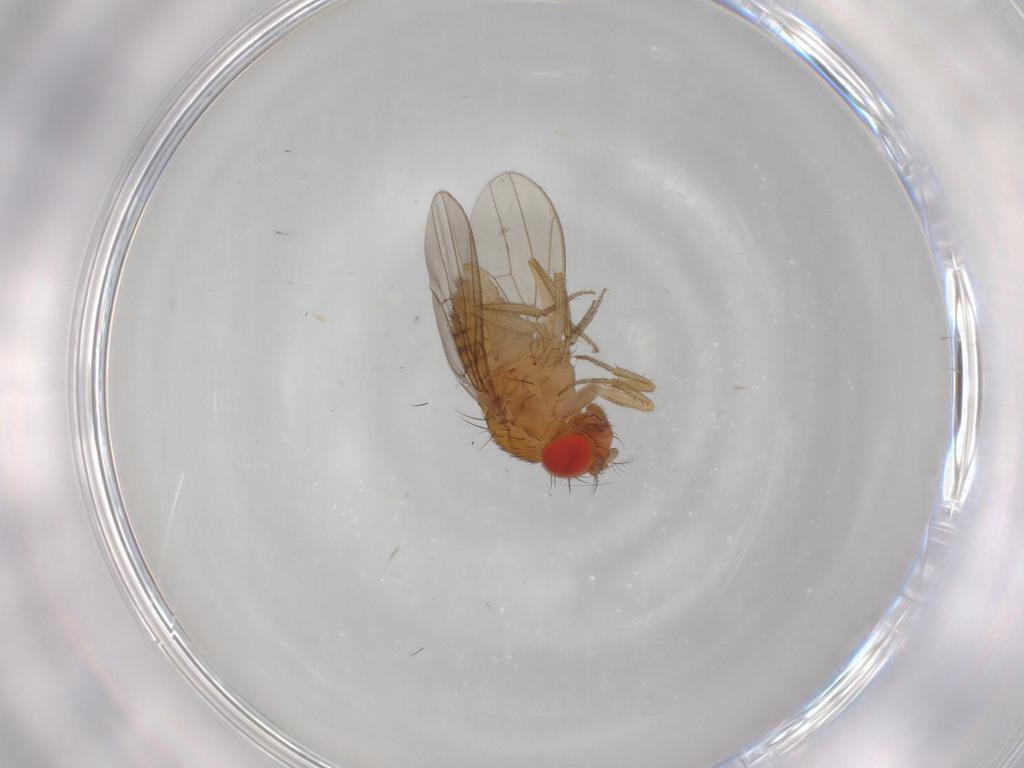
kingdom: Animalia
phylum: Arthropoda
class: Insecta
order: Diptera
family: Drosophilidae
